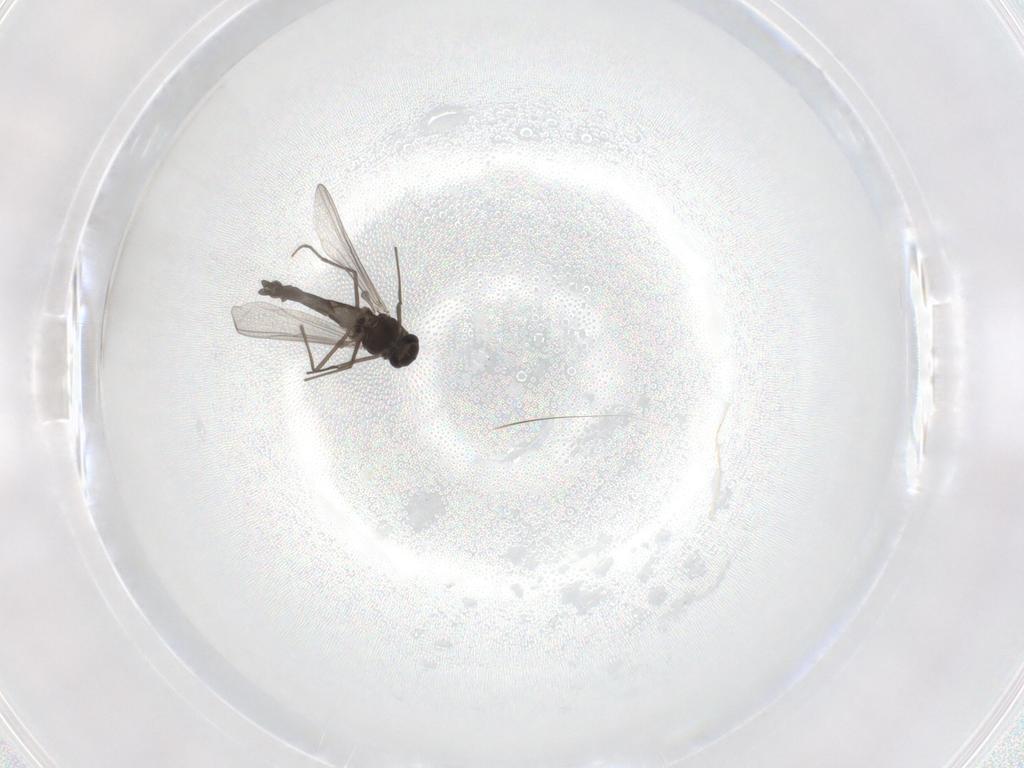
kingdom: Animalia
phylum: Arthropoda
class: Insecta
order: Diptera
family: Chironomidae
